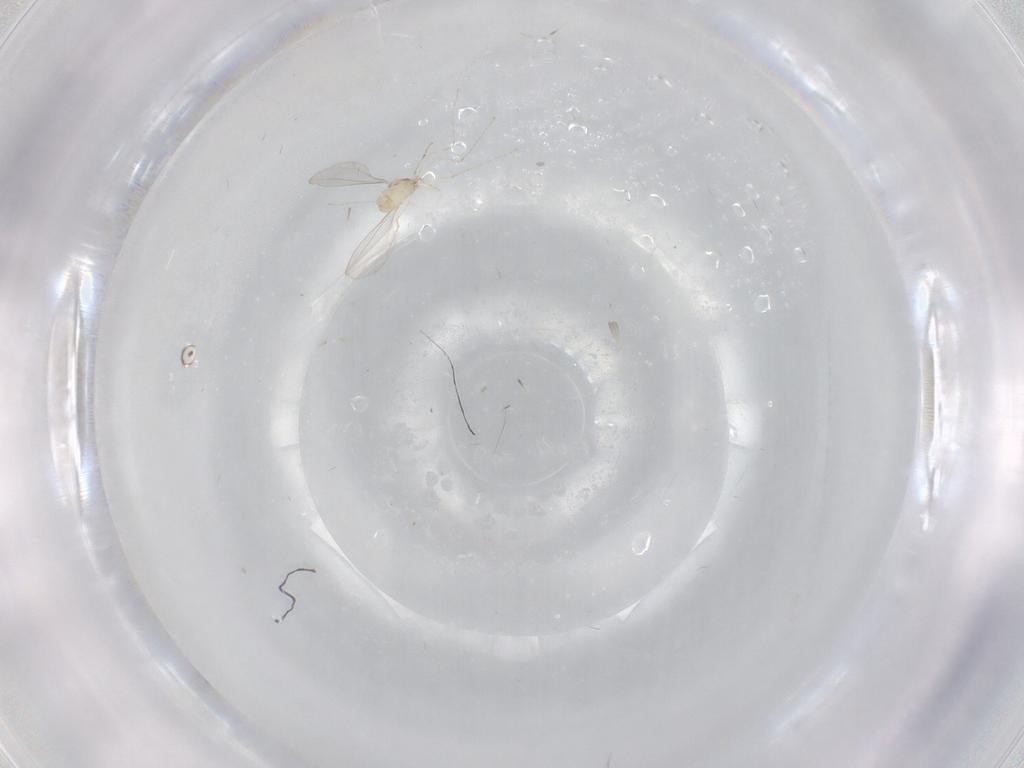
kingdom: Animalia
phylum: Arthropoda
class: Insecta
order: Diptera
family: Cecidomyiidae
